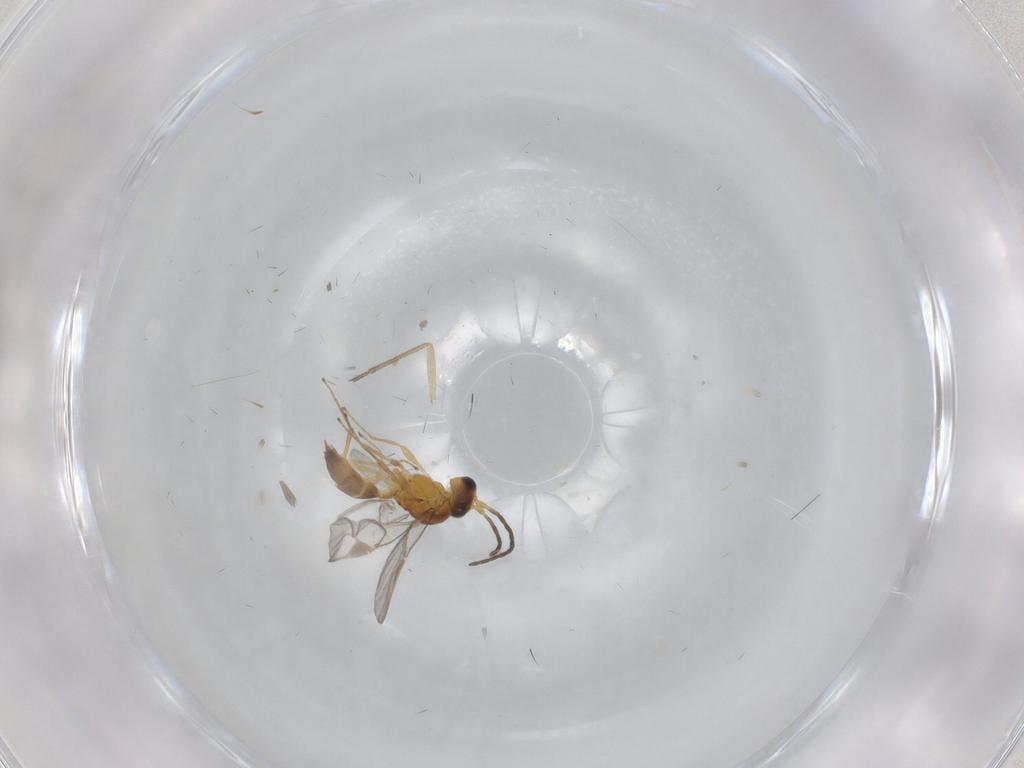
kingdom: Animalia
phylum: Arthropoda
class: Insecta
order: Hymenoptera
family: Braconidae
